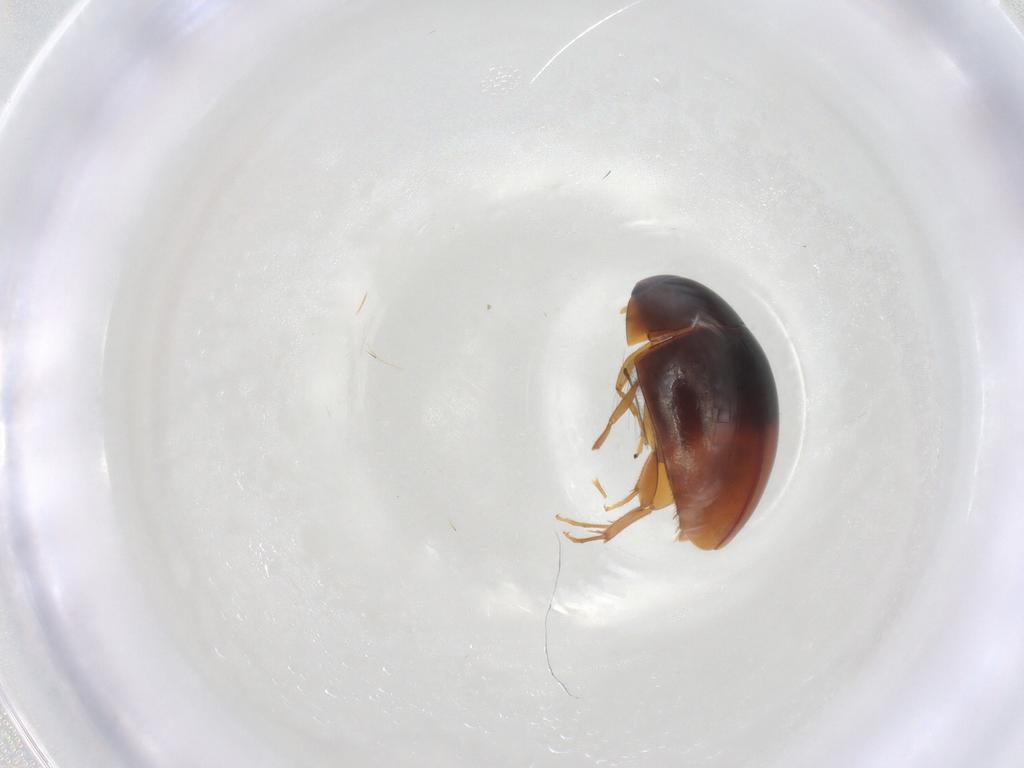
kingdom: Animalia
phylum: Arthropoda
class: Insecta
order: Coleoptera
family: Phalacridae
